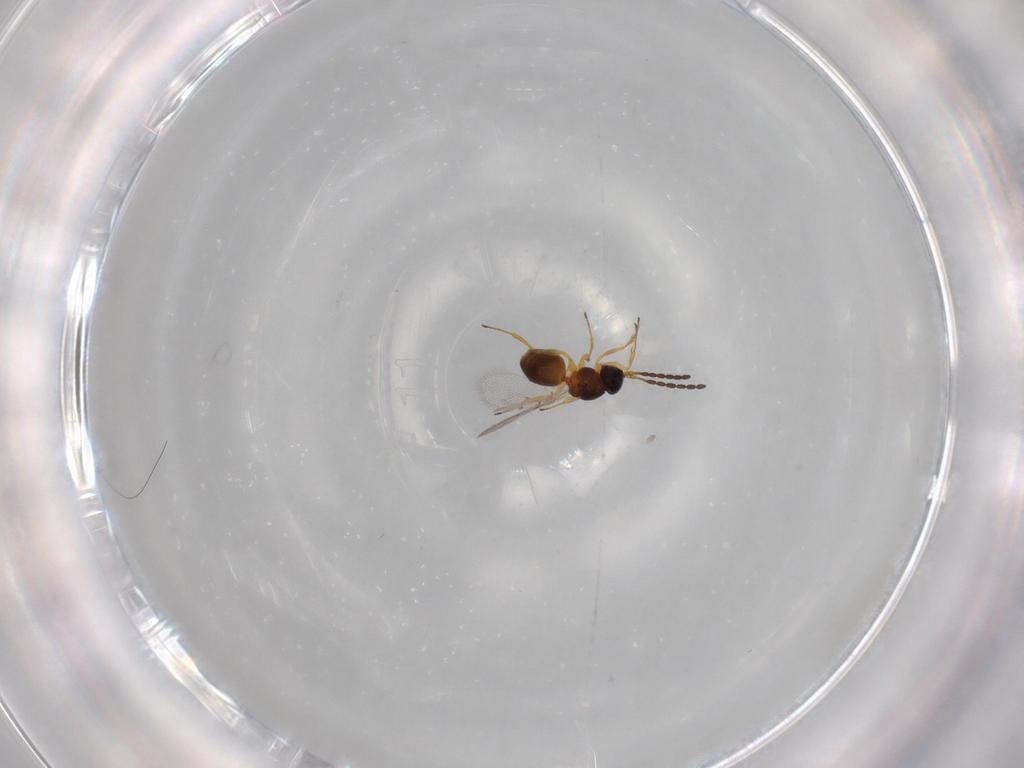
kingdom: Animalia
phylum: Arthropoda
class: Insecta
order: Hymenoptera
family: Figitidae
